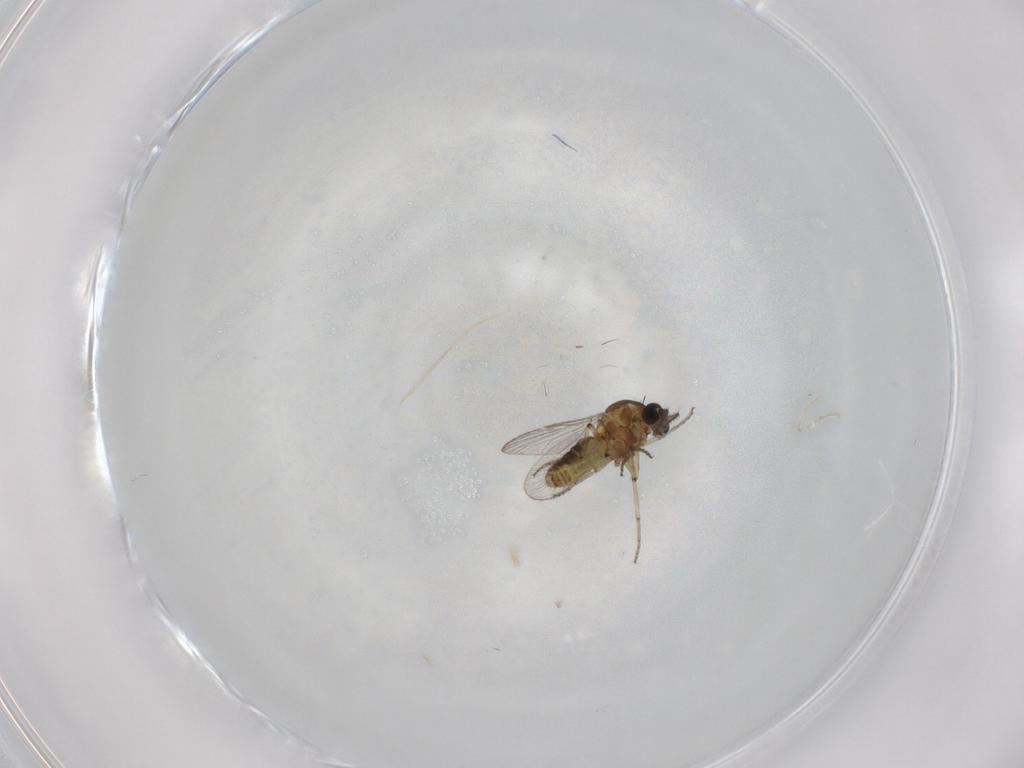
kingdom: Animalia
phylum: Arthropoda
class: Insecta
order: Diptera
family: Ceratopogonidae
